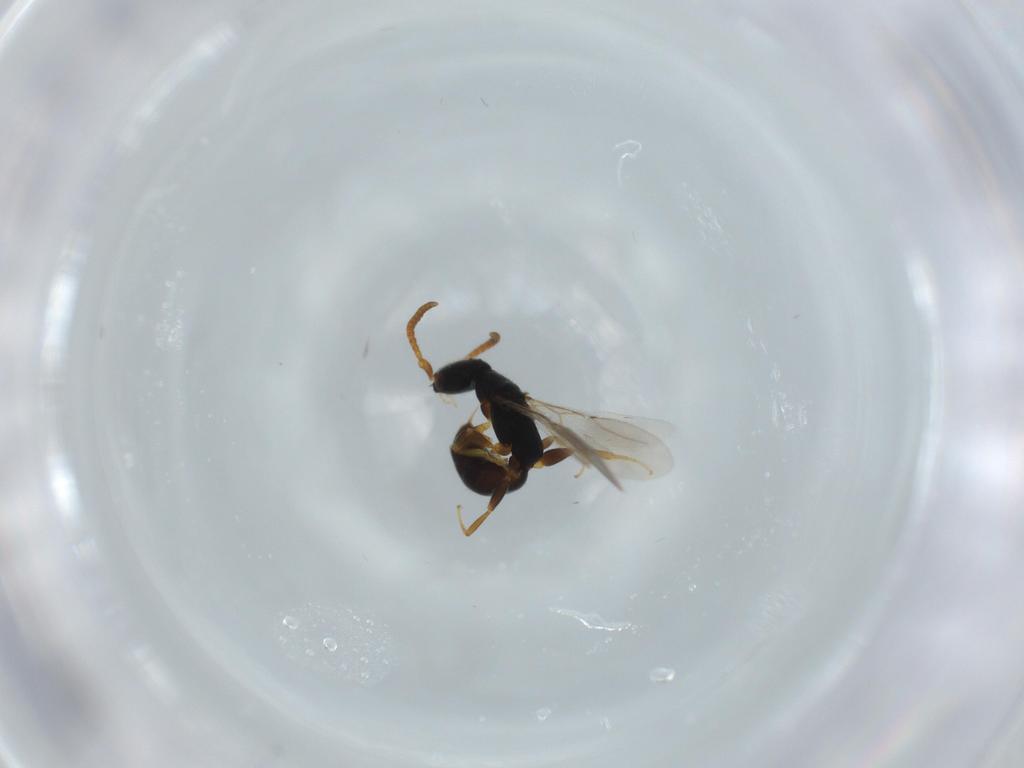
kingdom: Animalia
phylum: Arthropoda
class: Insecta
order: Hymenoptera
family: Bethylidae
